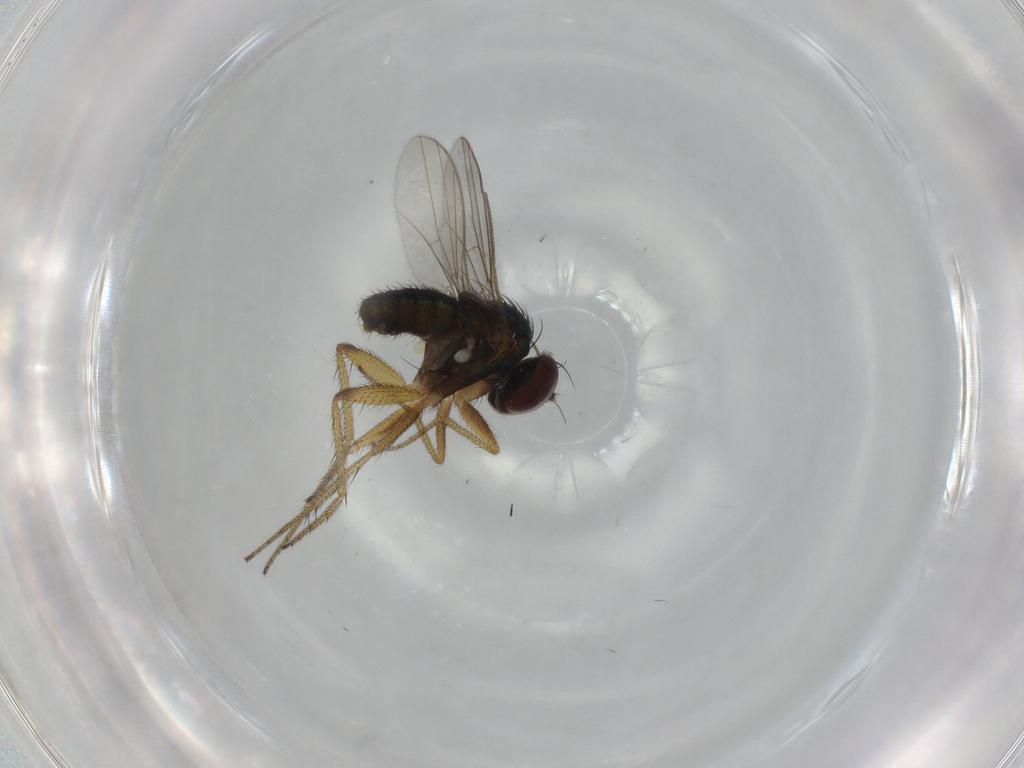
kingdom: Animalia
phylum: Arthropoda
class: Insecta
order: Diptera
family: Dolichopodidae
